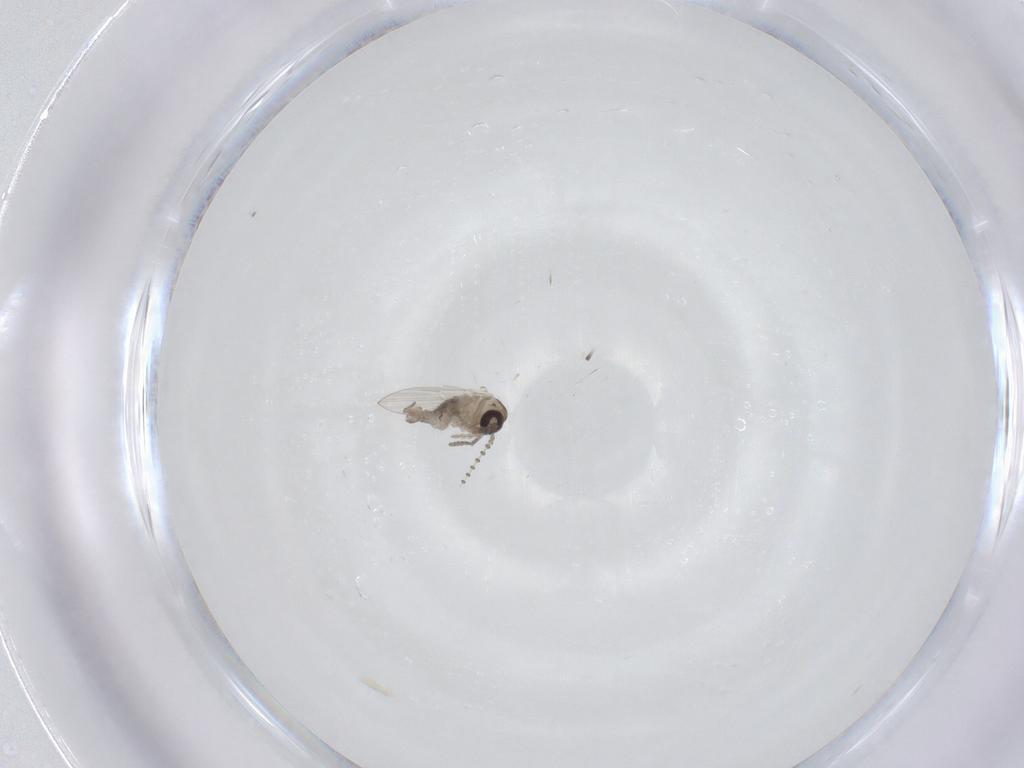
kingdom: Animalia
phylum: Arthropoda
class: Insecta
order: Diptera
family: Psychodidae
